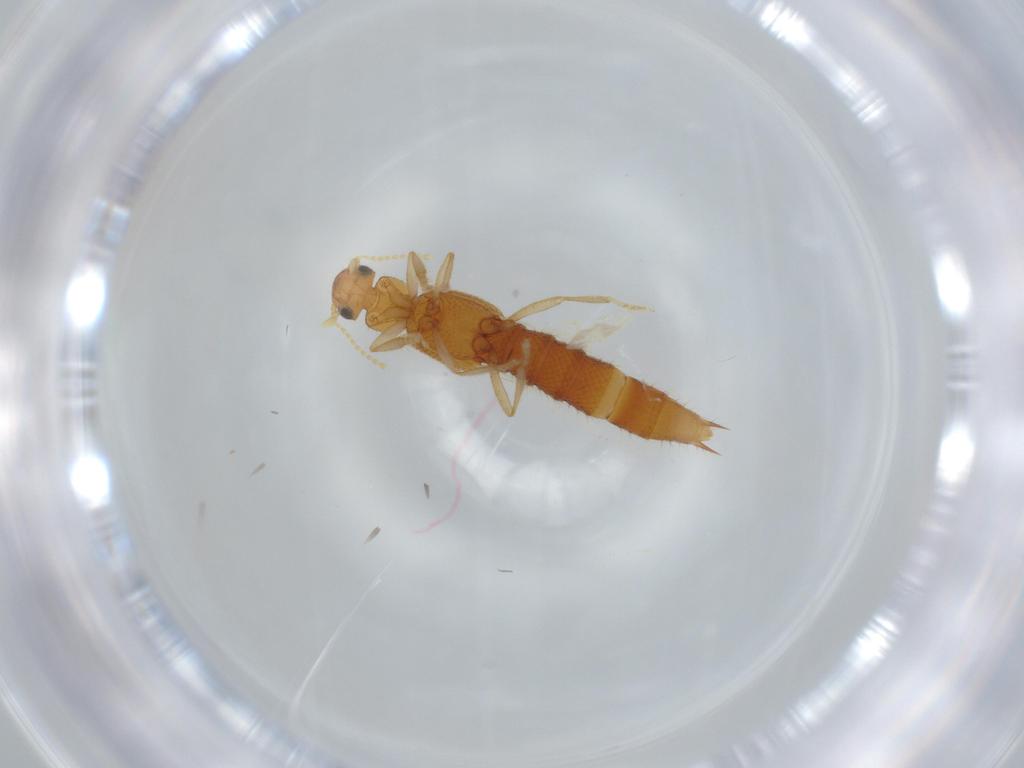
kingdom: Animalia
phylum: Arthropoda
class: Insecta
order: Coleoptera
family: Staphylinidae
